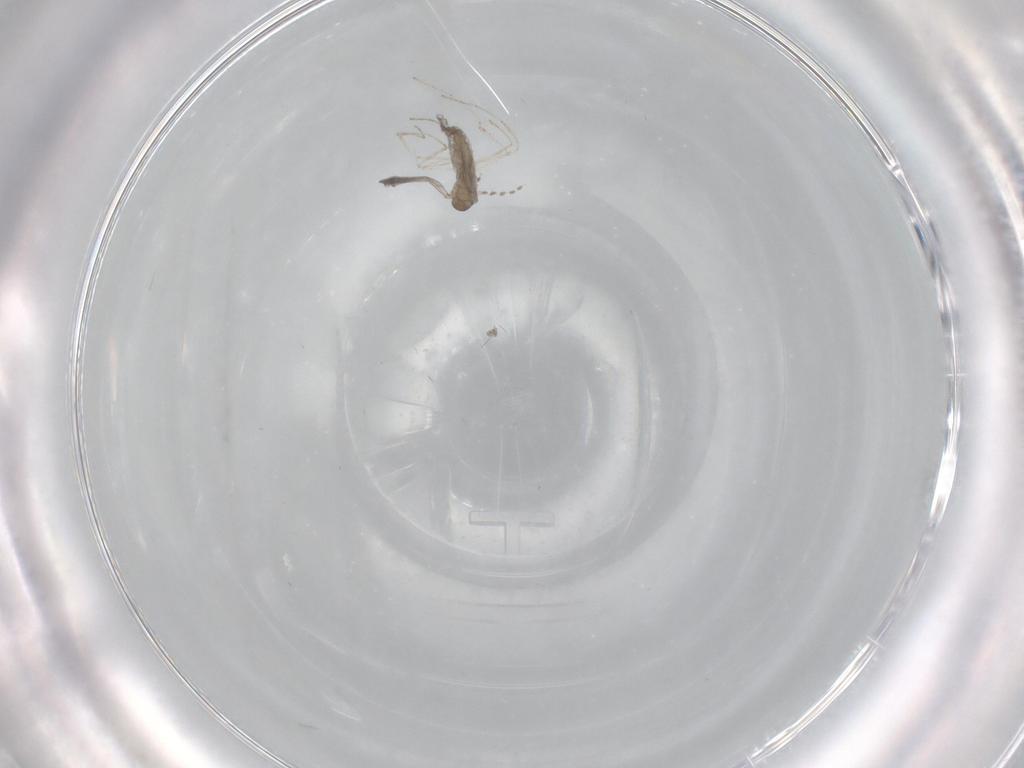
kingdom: Animalia
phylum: Arthropoda
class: Insecta
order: Diptera
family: Cecidomyiidae
